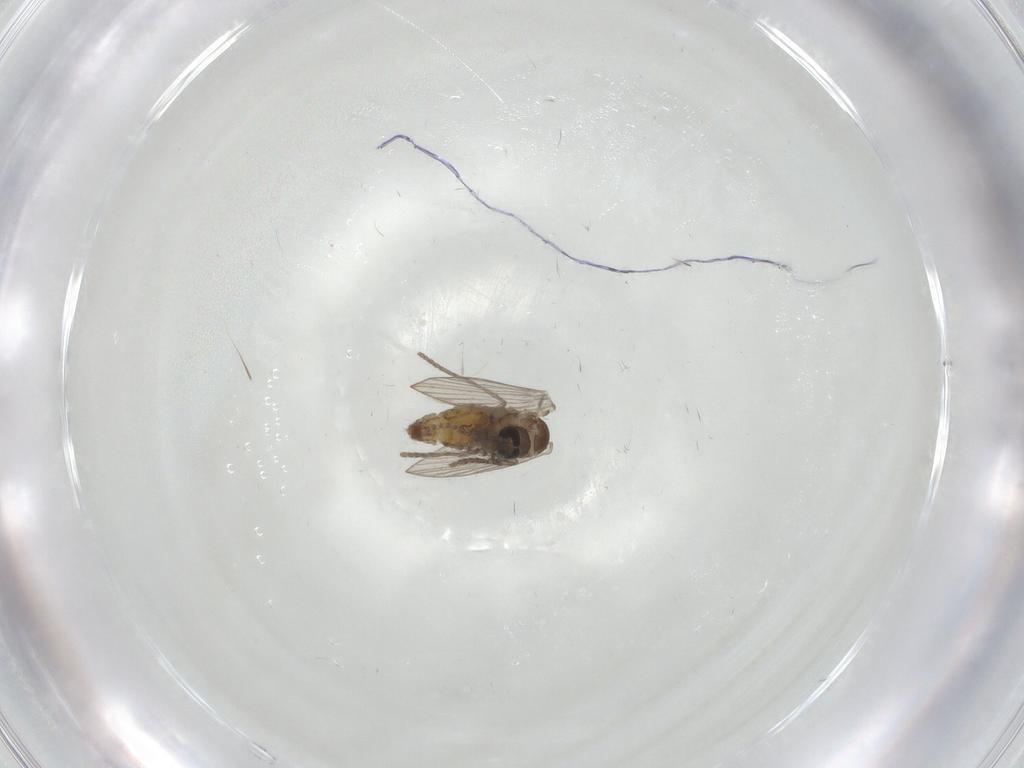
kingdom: Animalia
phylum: Arthropoda
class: Insecta
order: Diptera
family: Psychodidae
